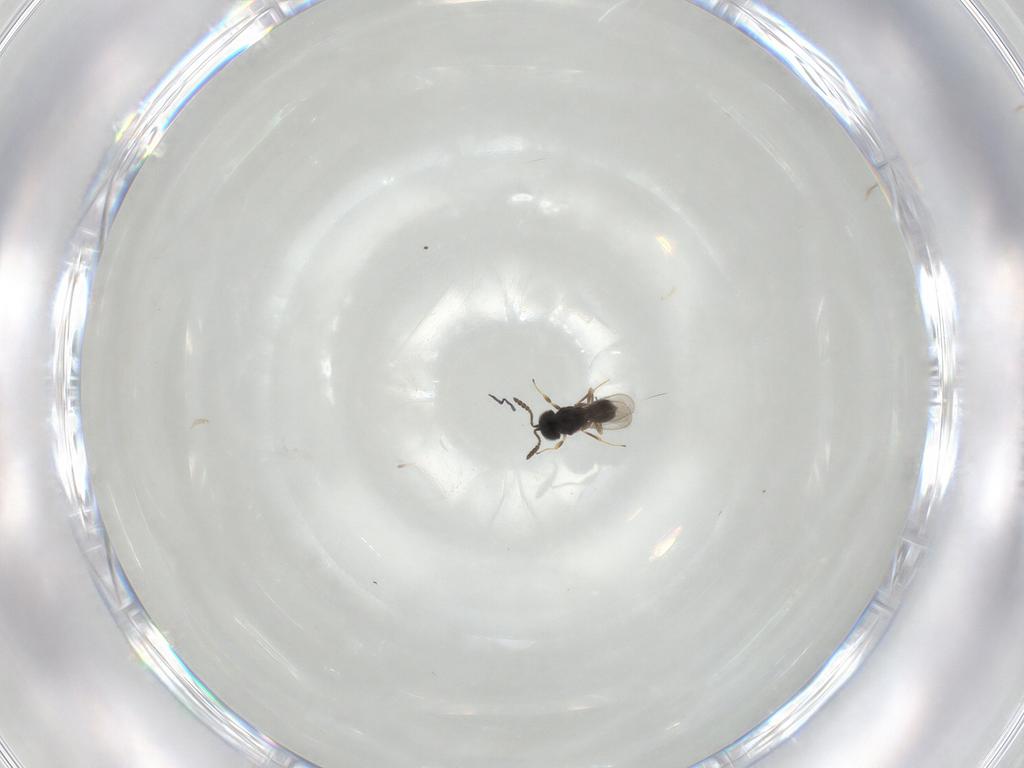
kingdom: Animalia
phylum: Arthropoda
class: Insecta
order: Hymenoptera
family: Scelionidae
